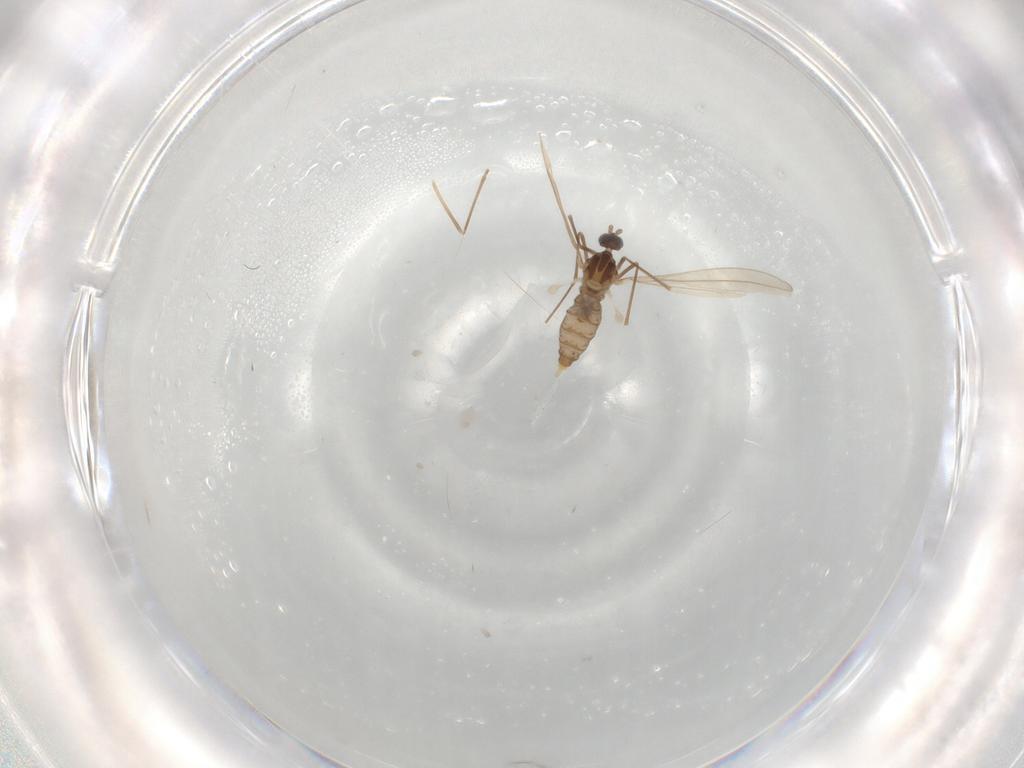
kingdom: Animalia
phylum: Arthropoda
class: Insecta
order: Diptera
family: Cecidomyiidae
